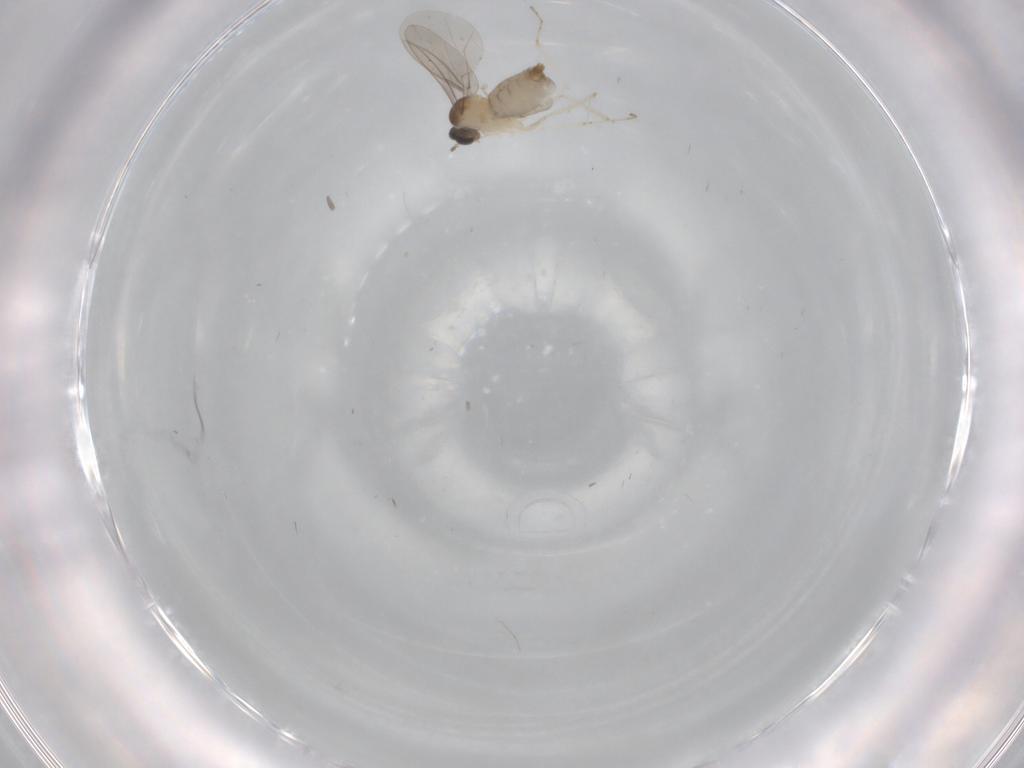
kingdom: Animalia
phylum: Arthropoda
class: Insecta
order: Diptera
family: Cecidomyiidae
